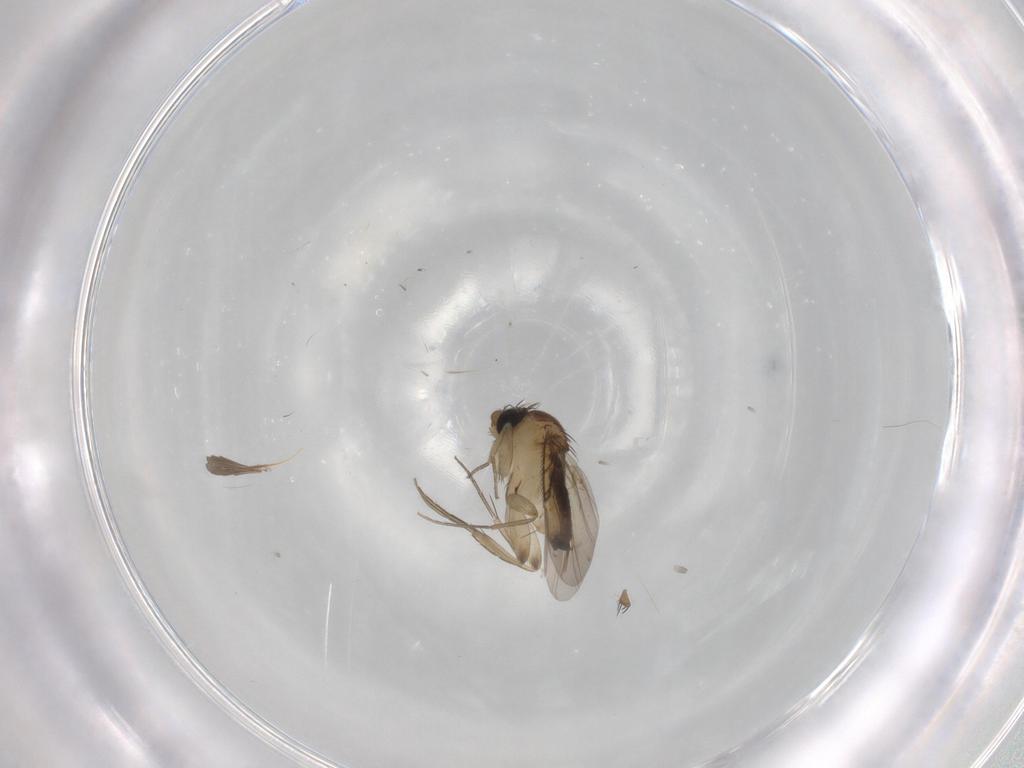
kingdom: Animalia
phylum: Arthropoda
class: Insecta
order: Diptera
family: Phoridae
